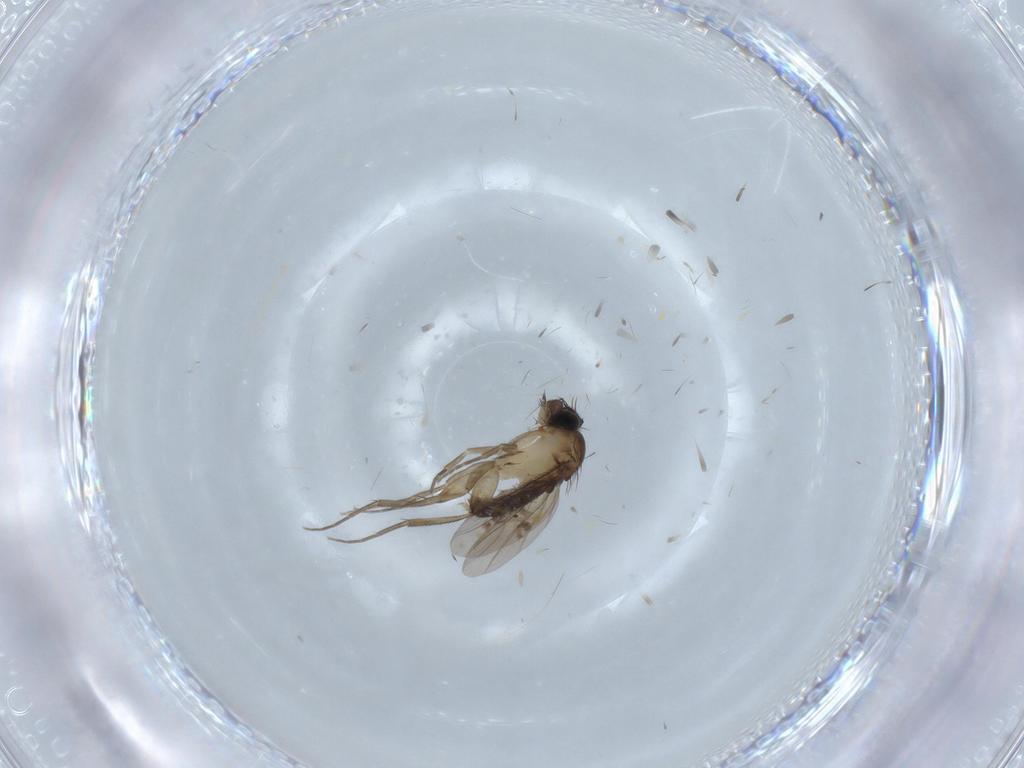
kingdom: Animalia
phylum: Arthropoda
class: Insecta
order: Diptera
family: Phoridae
